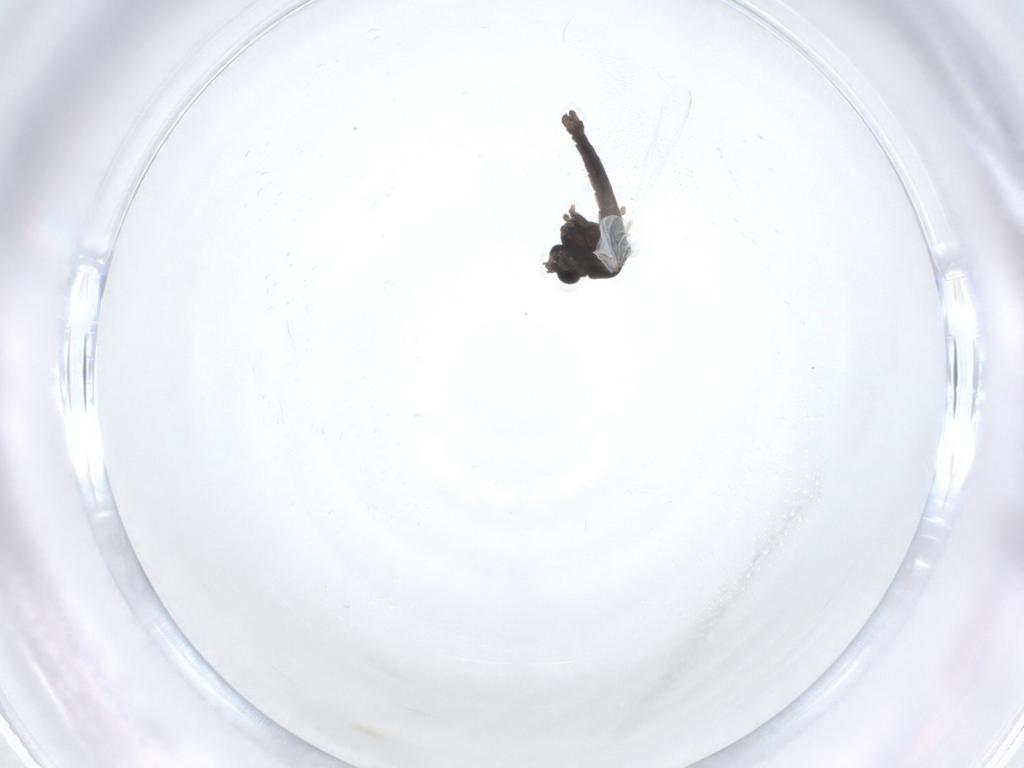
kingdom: Animalia
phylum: Arthropoda
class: Insecta
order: Diptera
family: Chironomidae
